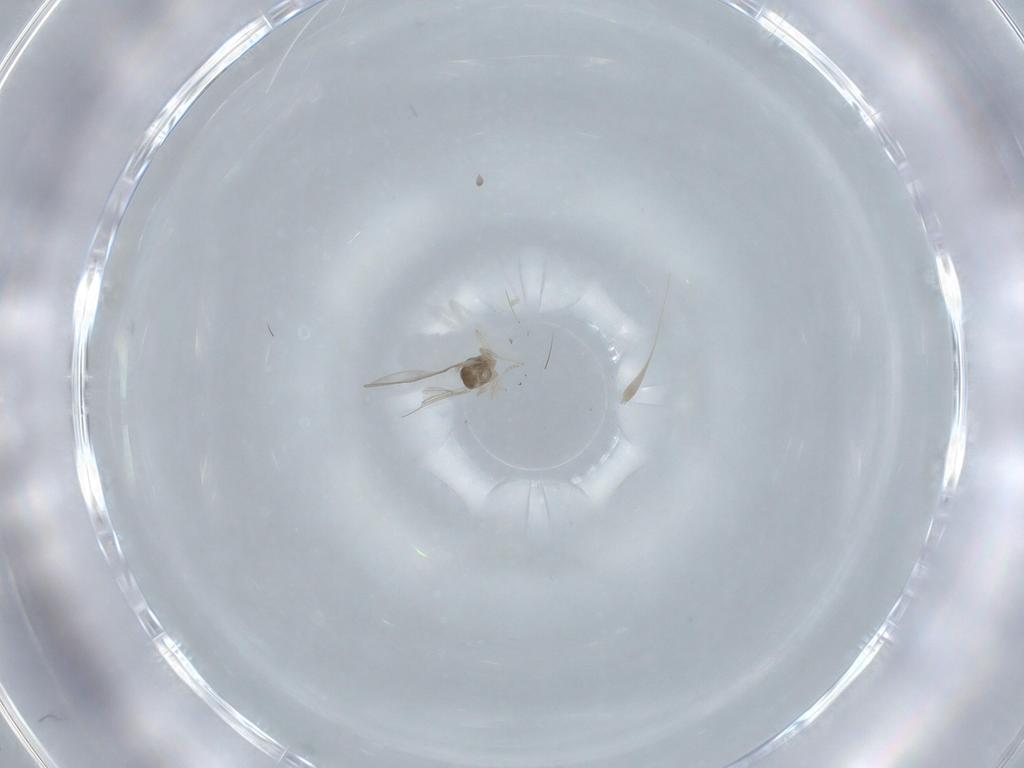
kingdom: Animalia
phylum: Arthropoda
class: Insecta
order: Diptera
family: Cecidomyiidae
